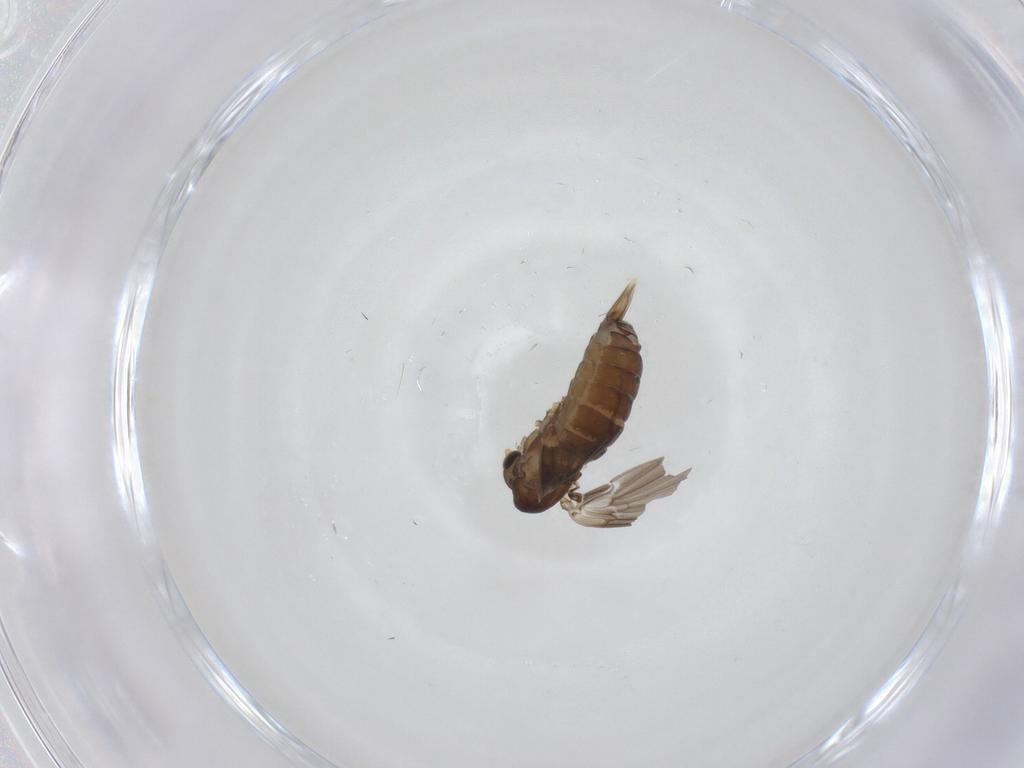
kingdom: Animalia
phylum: Arthropoda
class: Insecta
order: Diptera
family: Psychodidae
